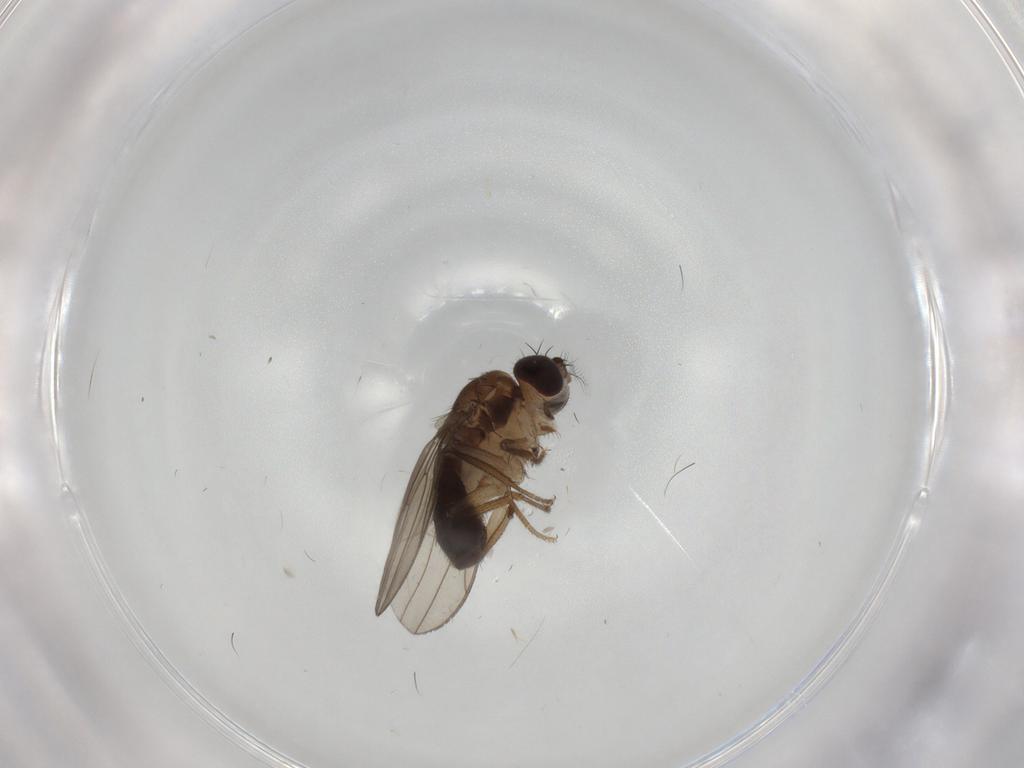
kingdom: Animalia
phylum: Arthropoda
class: Insecta
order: Diptera
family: Drosophilidae
